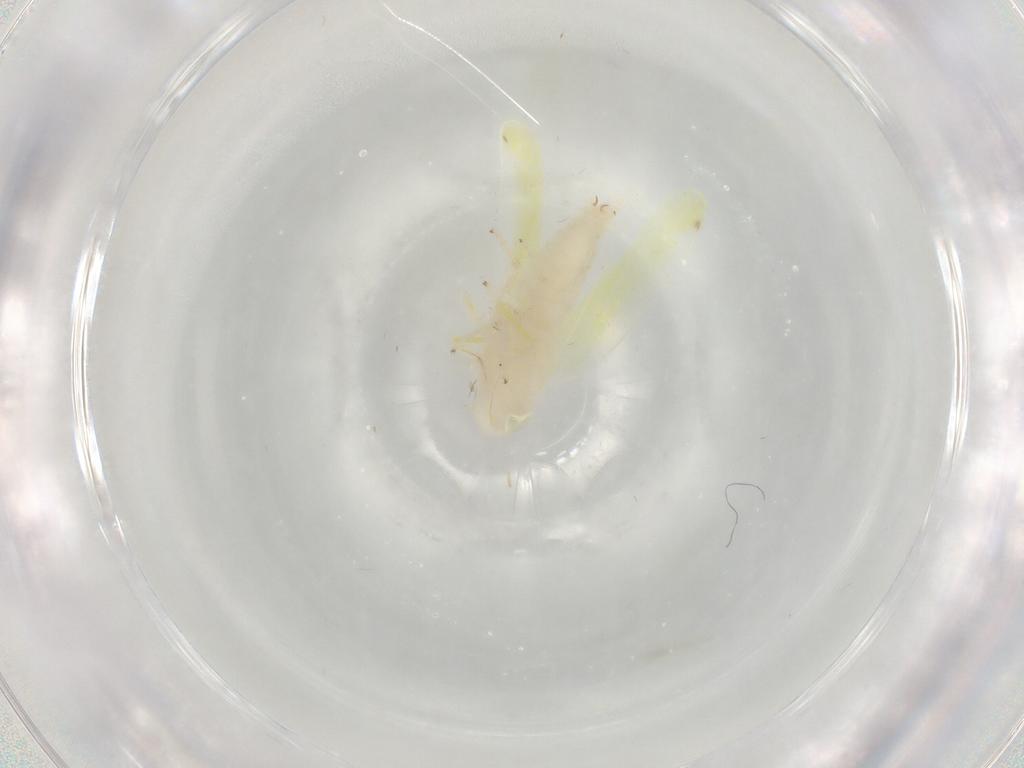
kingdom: Animalia
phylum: Arthropoda
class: Insecta
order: Hemiptera
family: Cicadellidae
